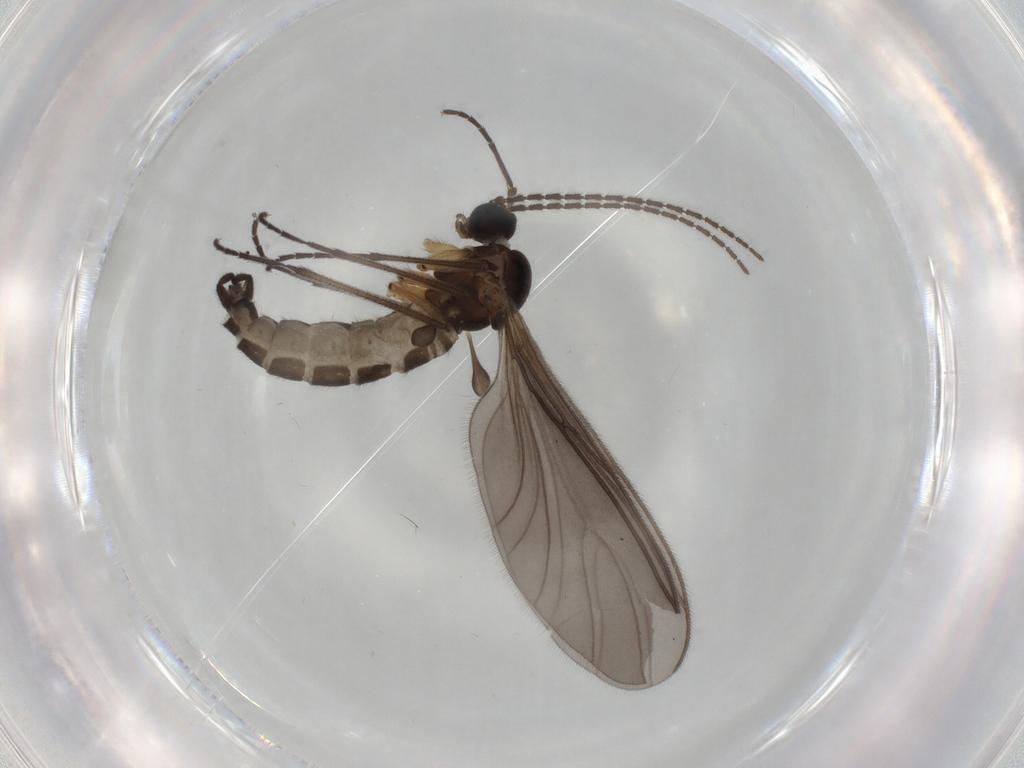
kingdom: Animalia
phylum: Arthropoda
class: Insecta
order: Diptera
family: Sciaridae
